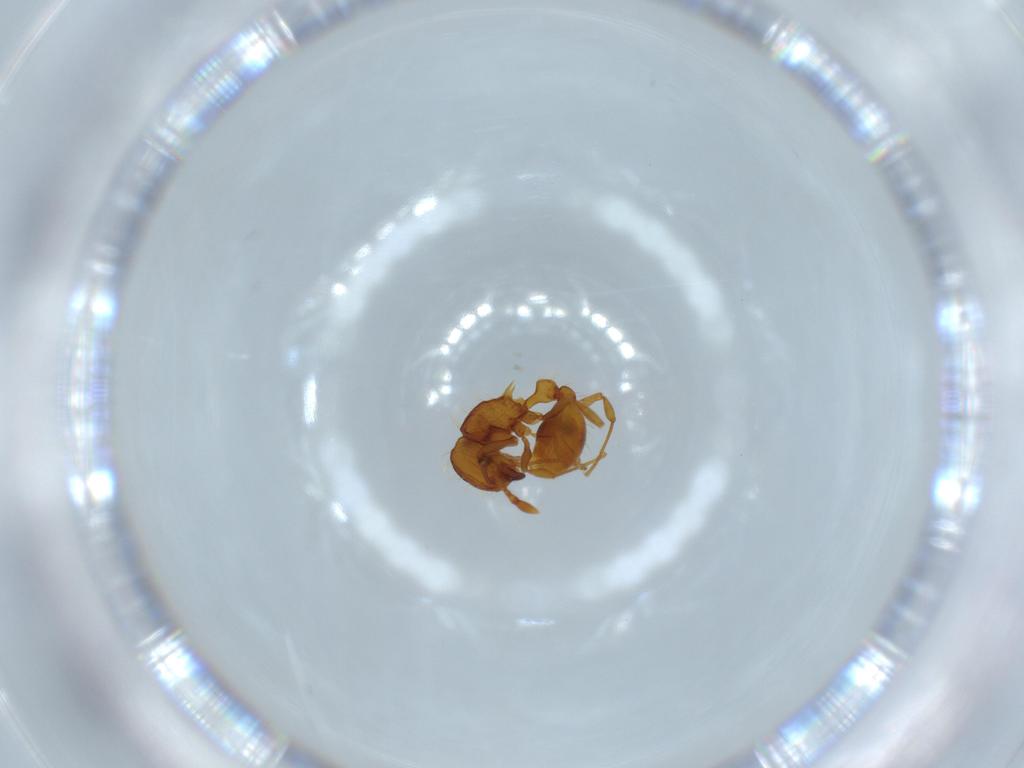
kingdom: Animalia
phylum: Arthropoda
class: Insecta
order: Hymenoptera
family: Formicidae
